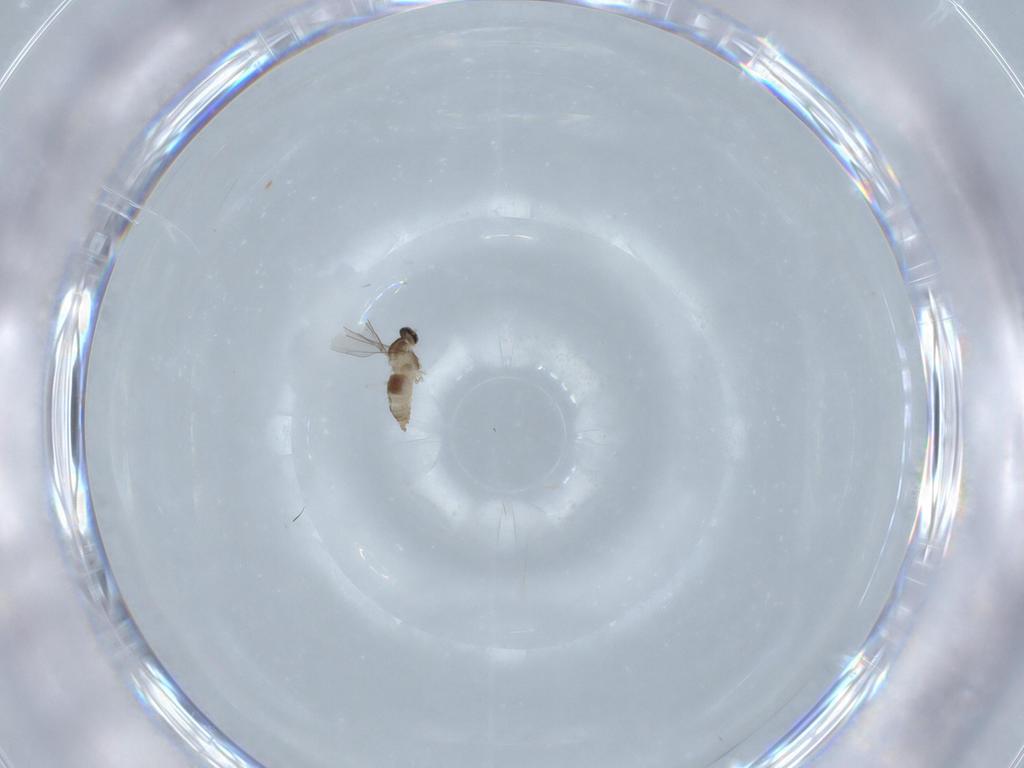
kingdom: Animalia
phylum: Arthropoda
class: Insecta
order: Diptera
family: Cecidomyiidae
